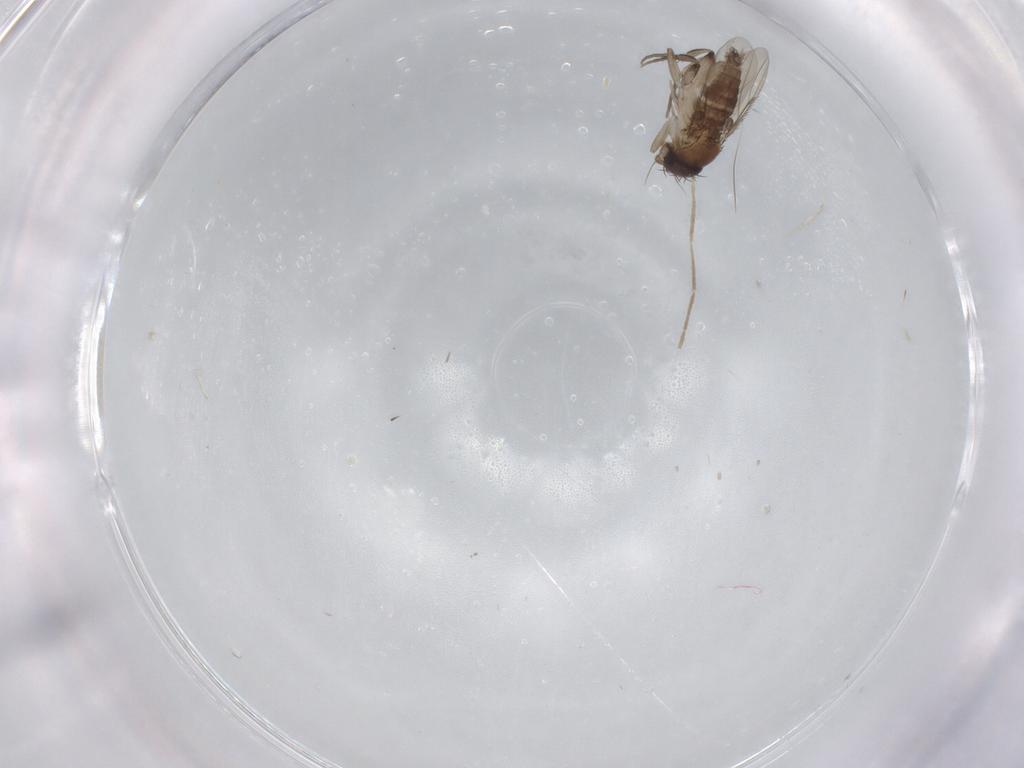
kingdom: Animalia
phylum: Arthropoda
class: Insecta
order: Diptera
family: Phoridae
